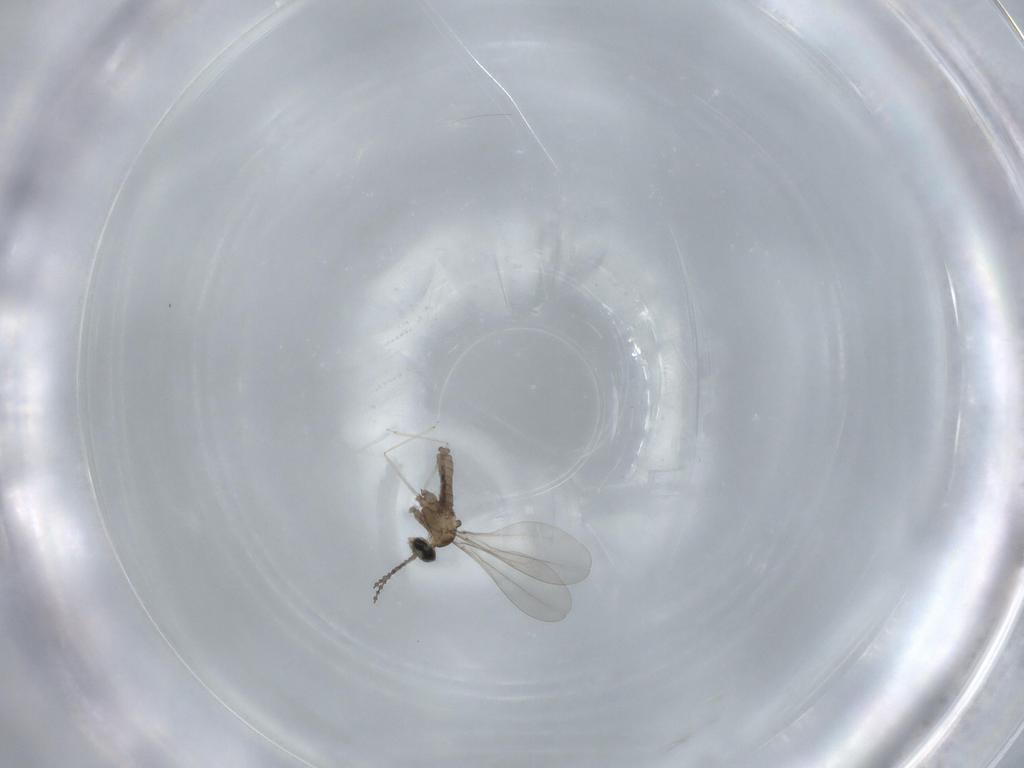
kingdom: Animalia
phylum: Arthropoda
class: Insecta
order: Diptera
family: Cecidomyiidae
